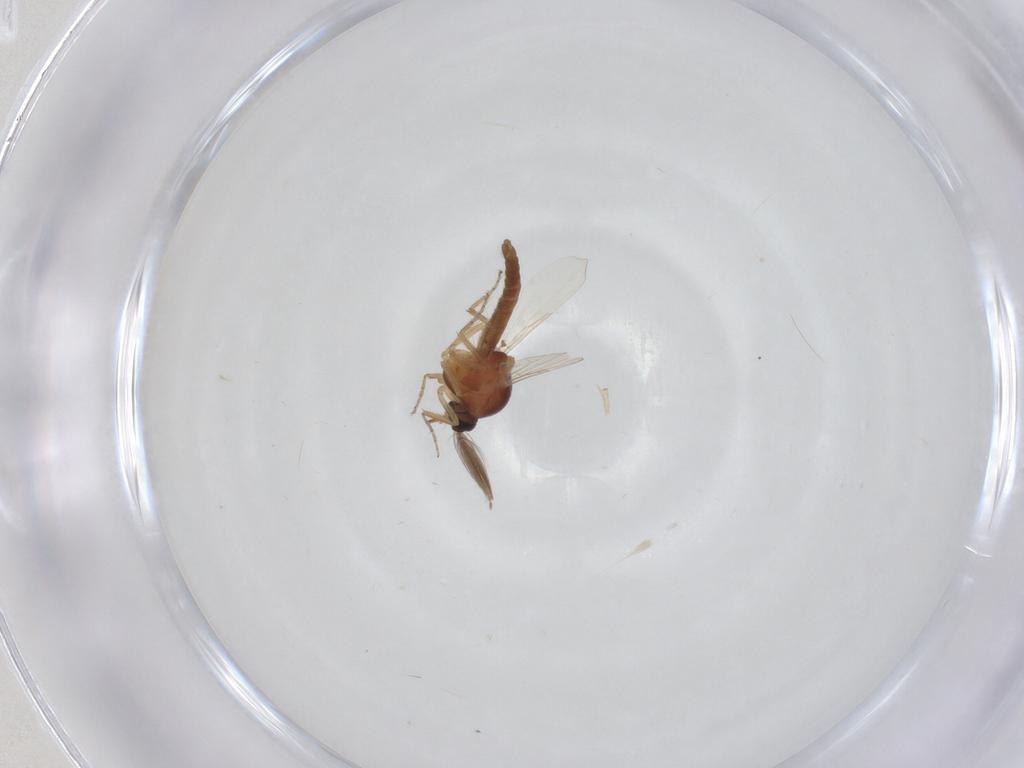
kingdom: Animalia
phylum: Arthropoda
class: Insecta
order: Diptera
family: Ceratopogonidae
